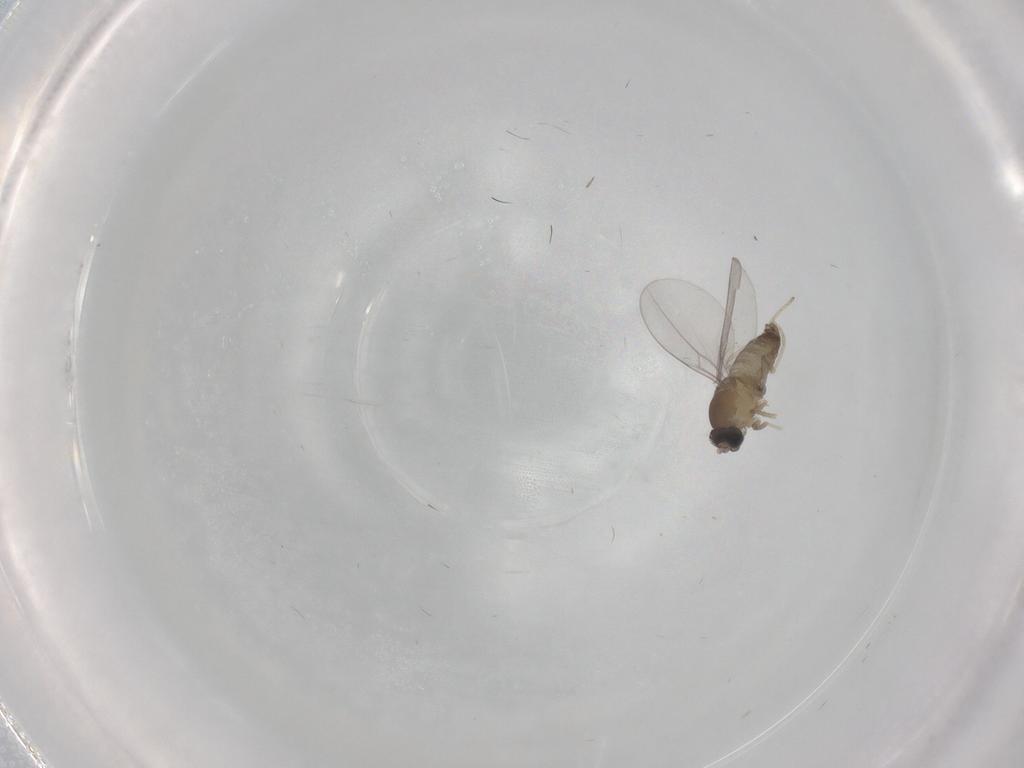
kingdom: Animalia
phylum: Arthropoda
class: Insecta
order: Diptera
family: Cecidomyiidae
